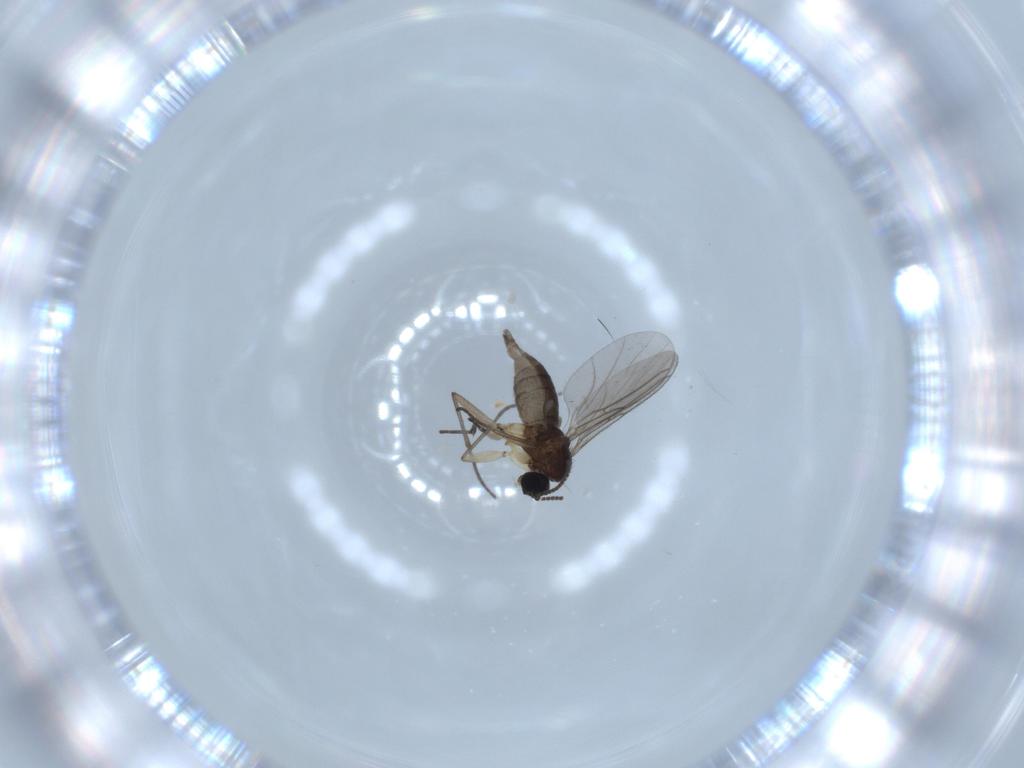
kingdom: Animalia
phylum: Arthropoda
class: Insecta
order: Diptera
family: Sciaridae
